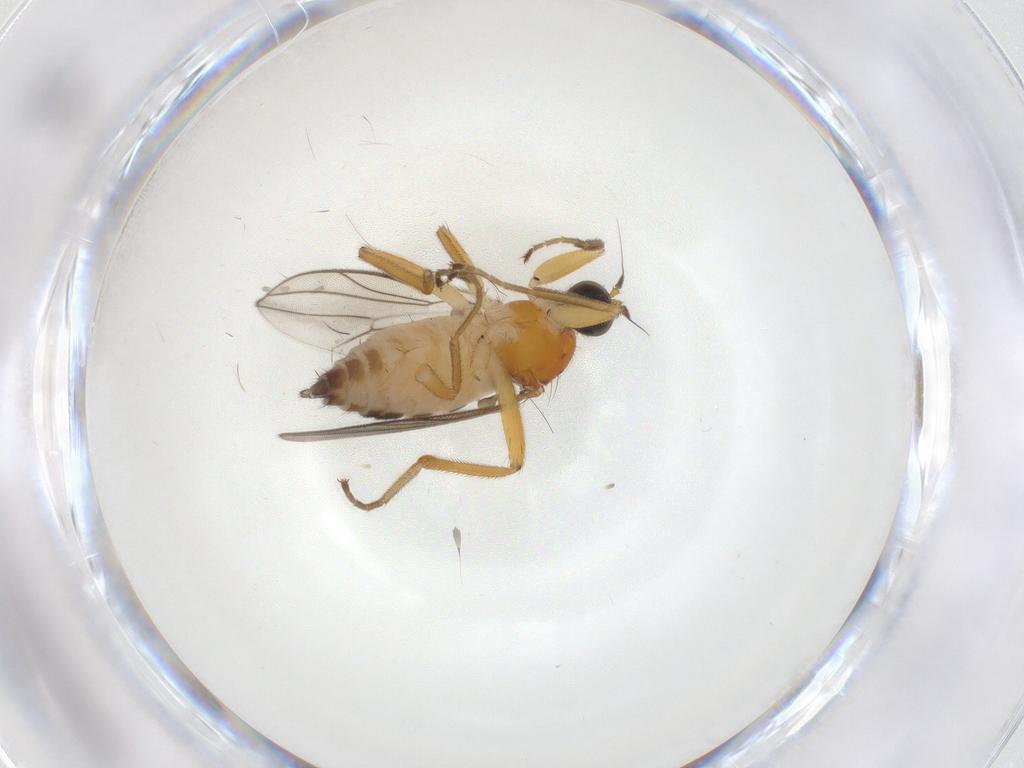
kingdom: Animalia
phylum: Arthropoda
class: Insecta
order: Diptera
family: Hybotidae
